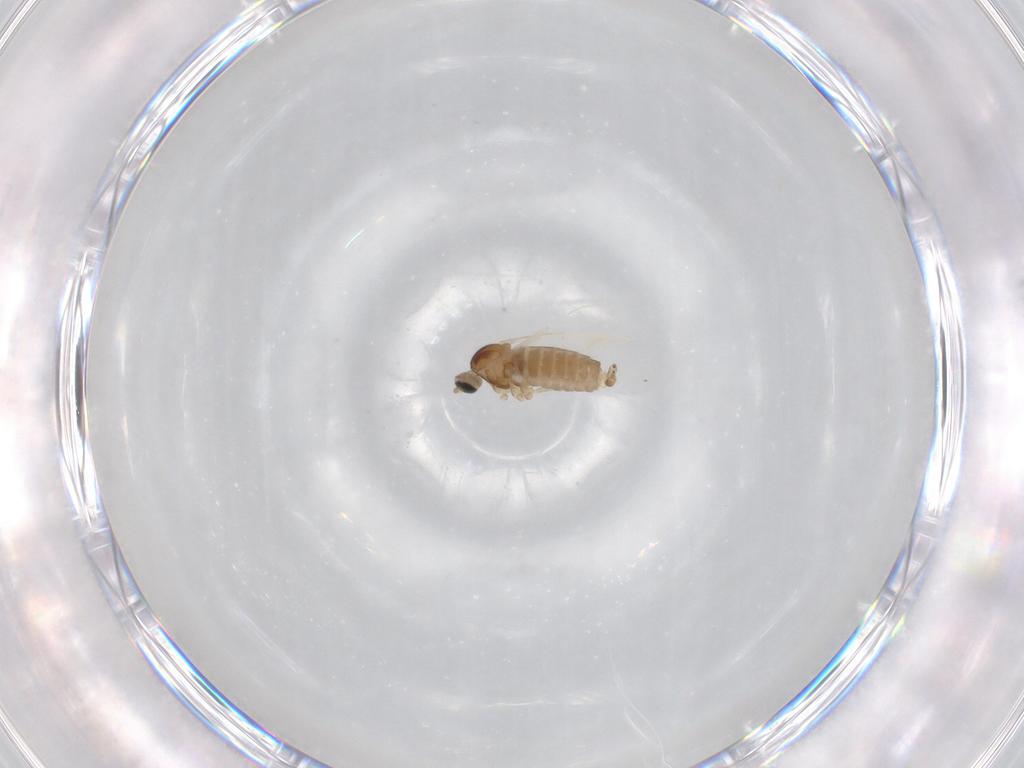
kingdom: Animalia
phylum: Arthropoda
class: Insecta
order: Diptera
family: Cecidomyiidae
